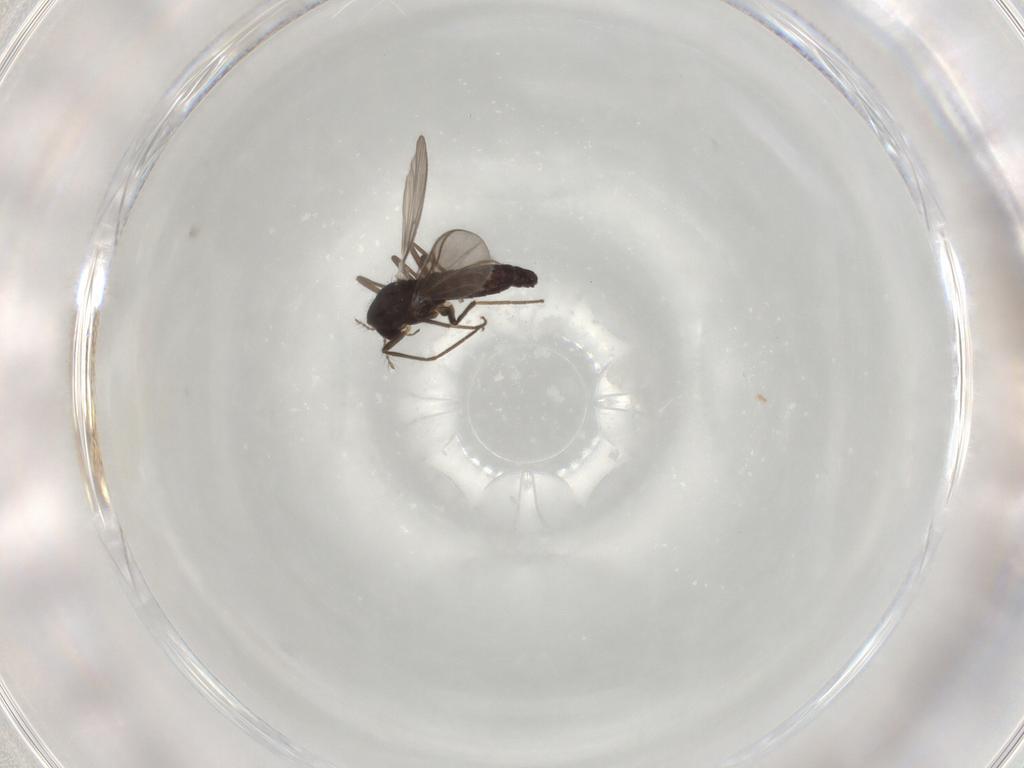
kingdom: Animalia
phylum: Arthropoda
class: Insecta
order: Diptera
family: Chironomidae
